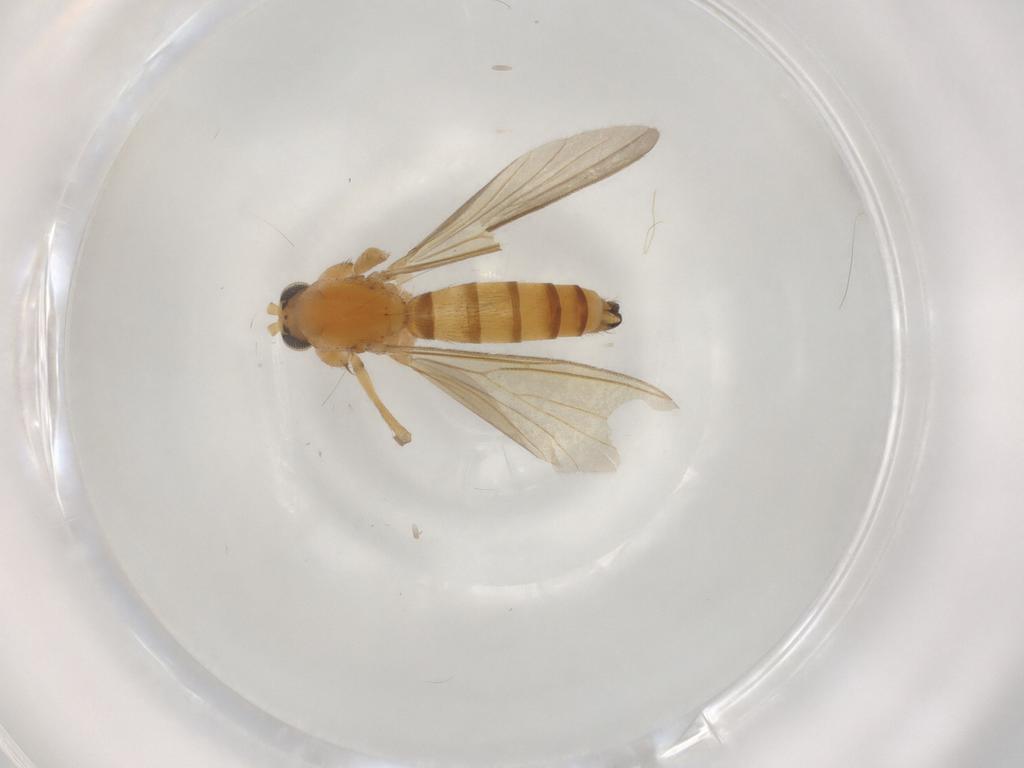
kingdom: Animalia
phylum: Arthropoda
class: Insecta
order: Diptera
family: Mycetophilidae
